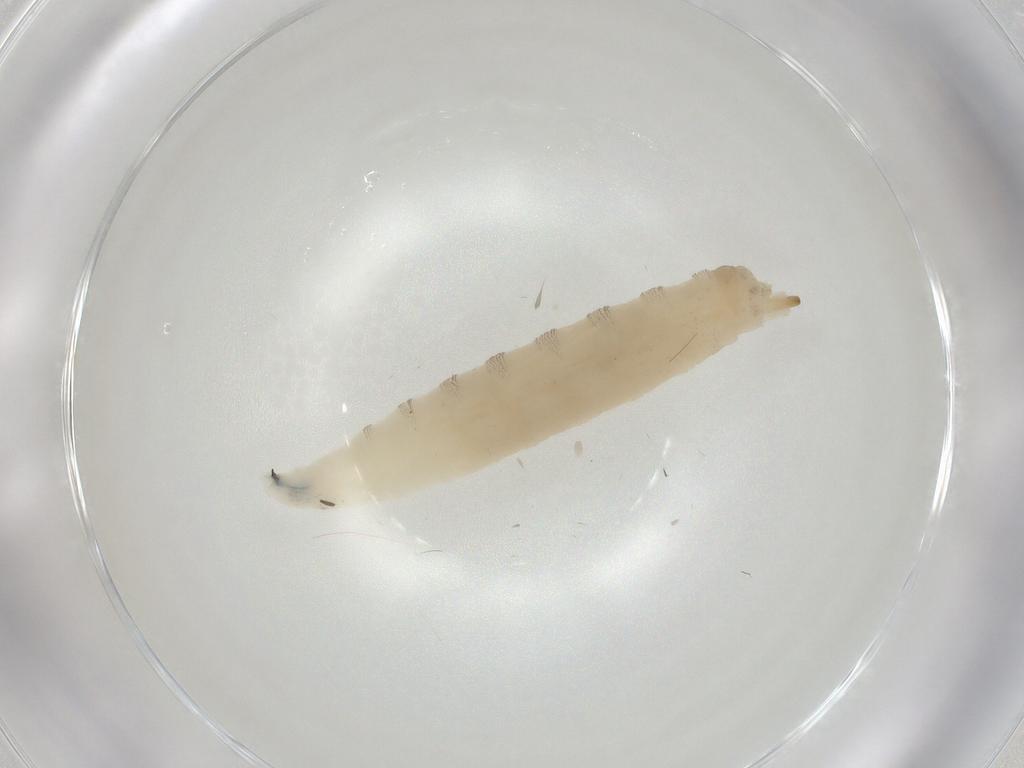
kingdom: Animalia
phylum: Arthropoda
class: Insecta
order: Diptera
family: Drosophilidae
